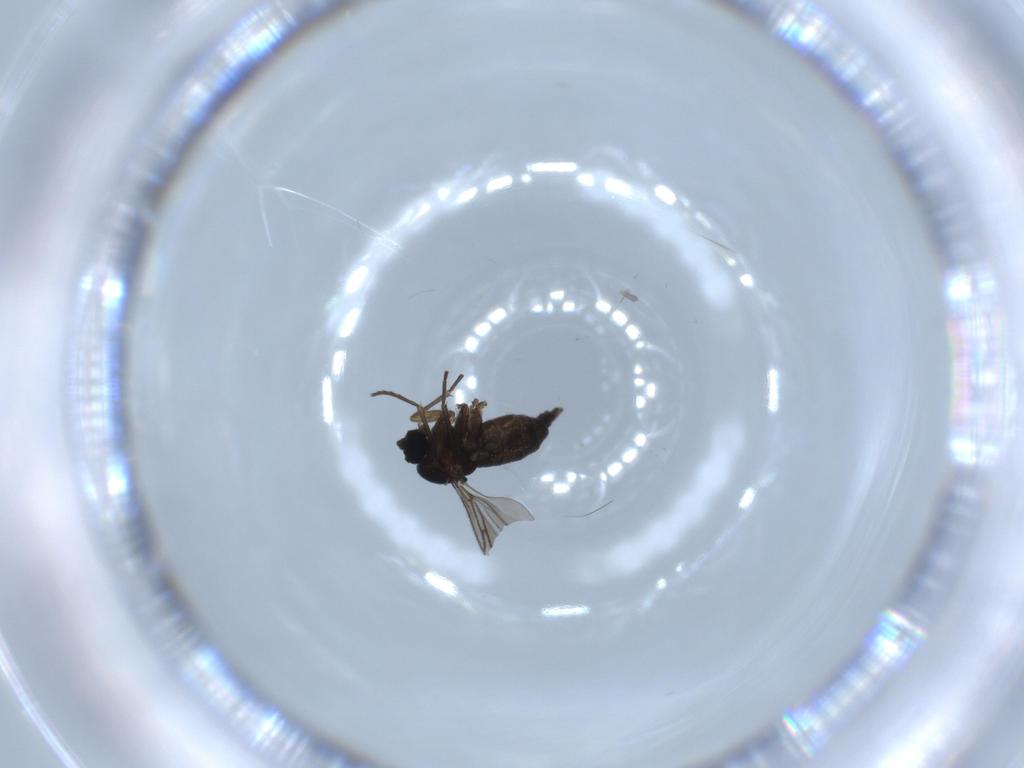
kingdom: Animalia
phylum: Arthropoda
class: Insecta
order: Diptera
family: Sciaridae
